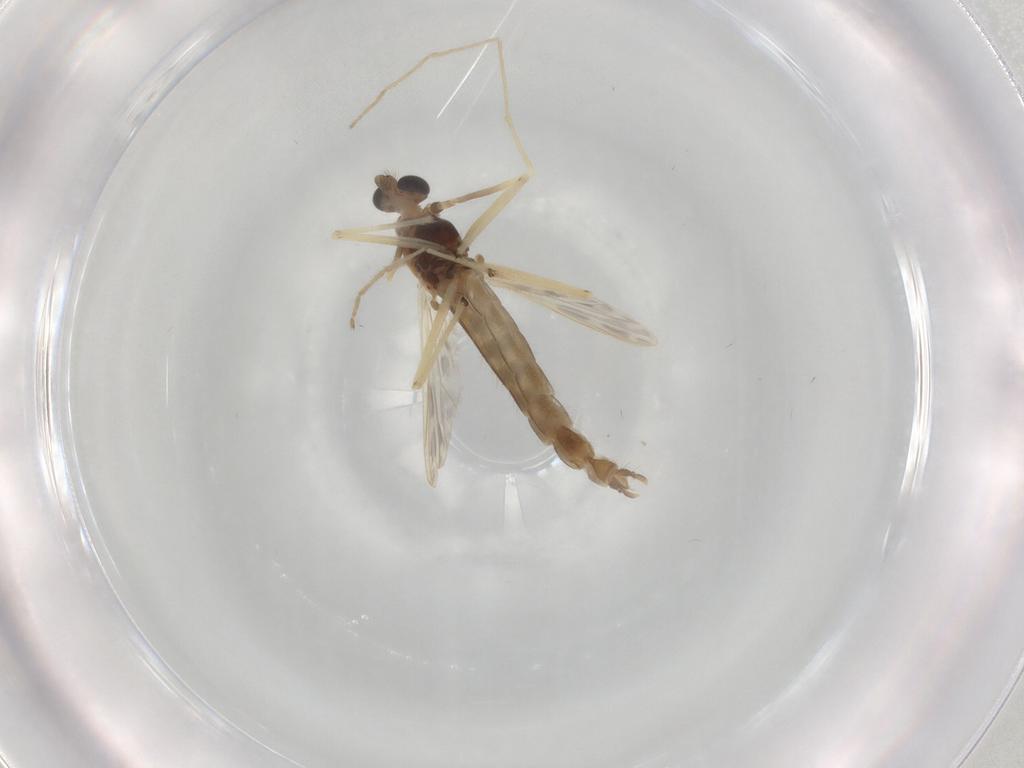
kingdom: Animalia
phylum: Arthropoda
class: Insecta
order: Diptera
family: Chironomidae
